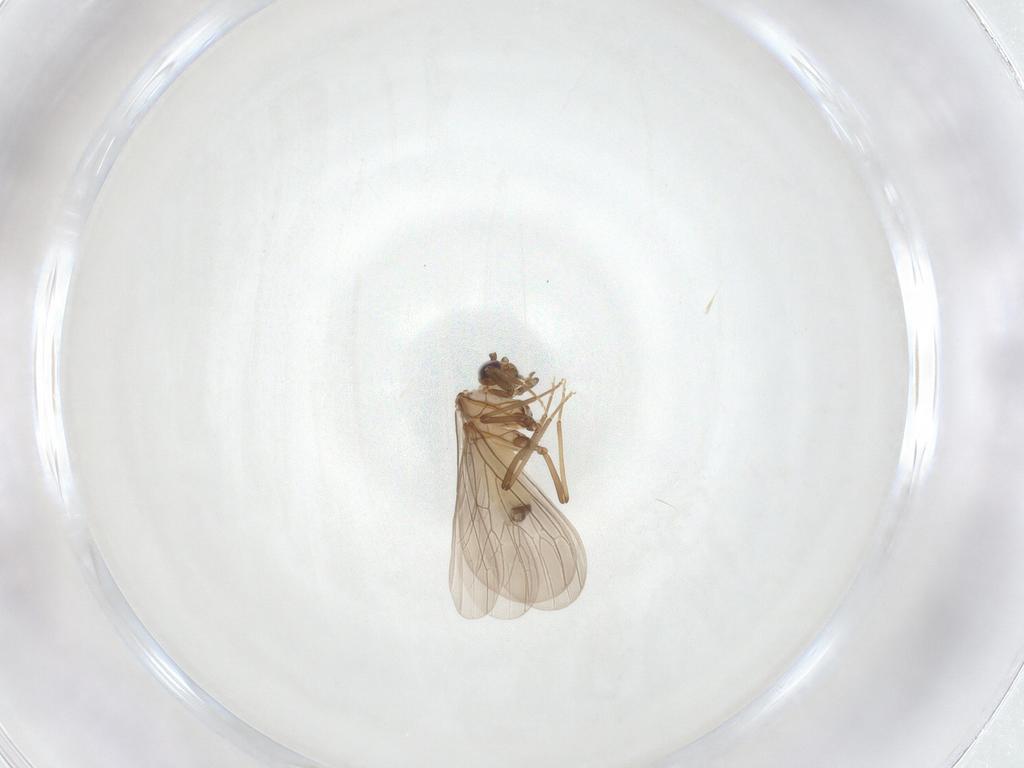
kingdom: Animalia
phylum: Arthropoda
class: Insecta
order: Neuroptera
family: Coniopterygidae
